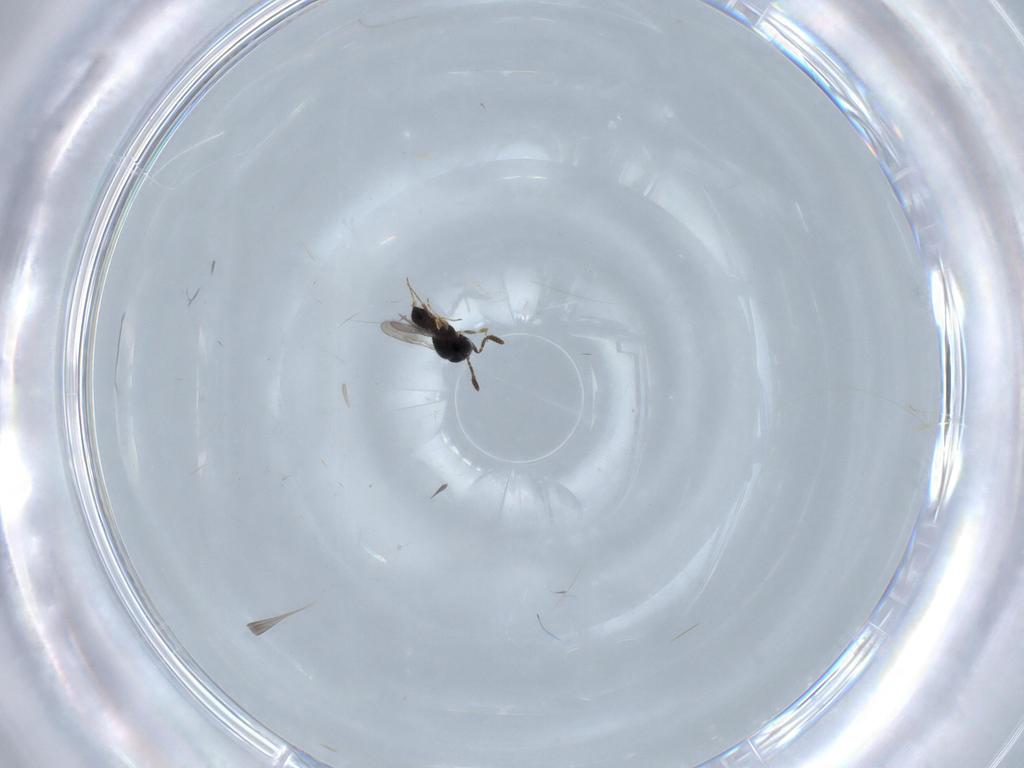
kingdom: Animalia
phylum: Arthropoda
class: Insecta
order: Hymenoptera
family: Scelionidae
